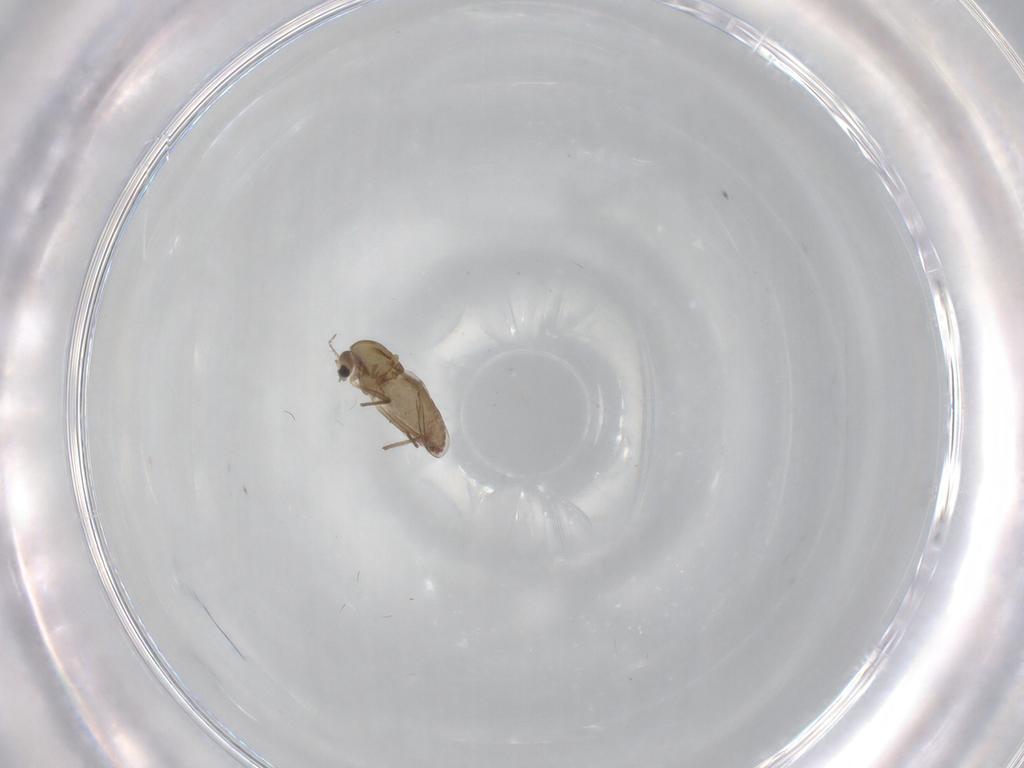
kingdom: Animalia
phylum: Arthropoda
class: Insecta
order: Diptera
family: Chironomidae
